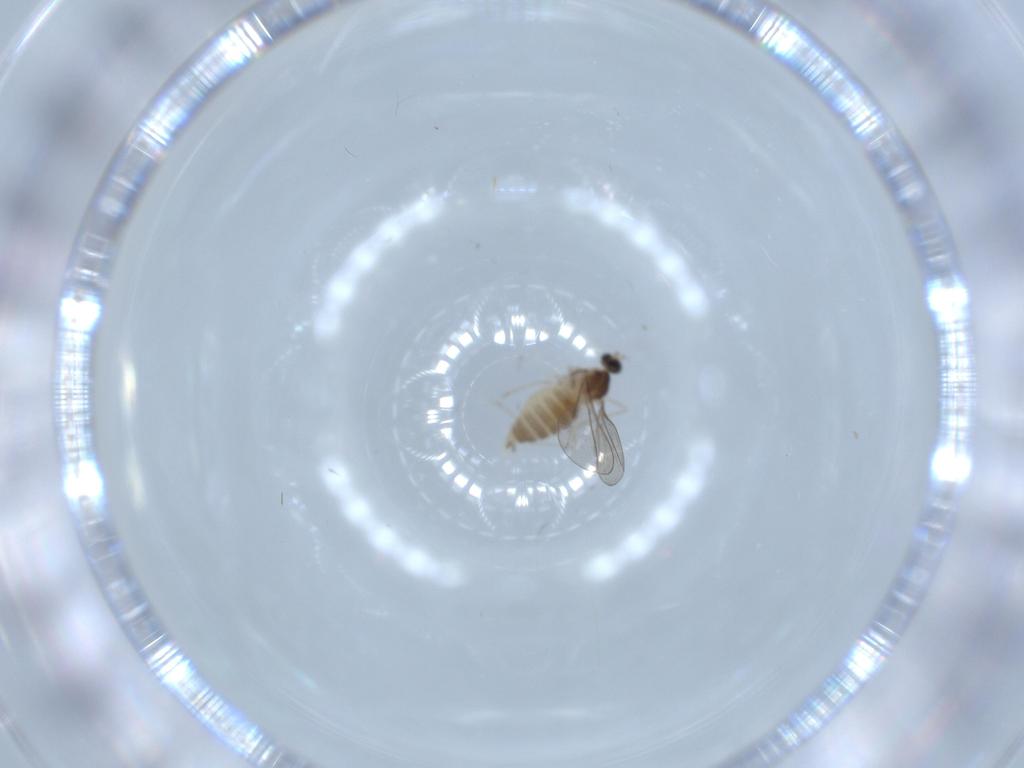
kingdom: Animalia
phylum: Arthropoda
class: Insecta
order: Diptera
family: Cecidomyiidae
